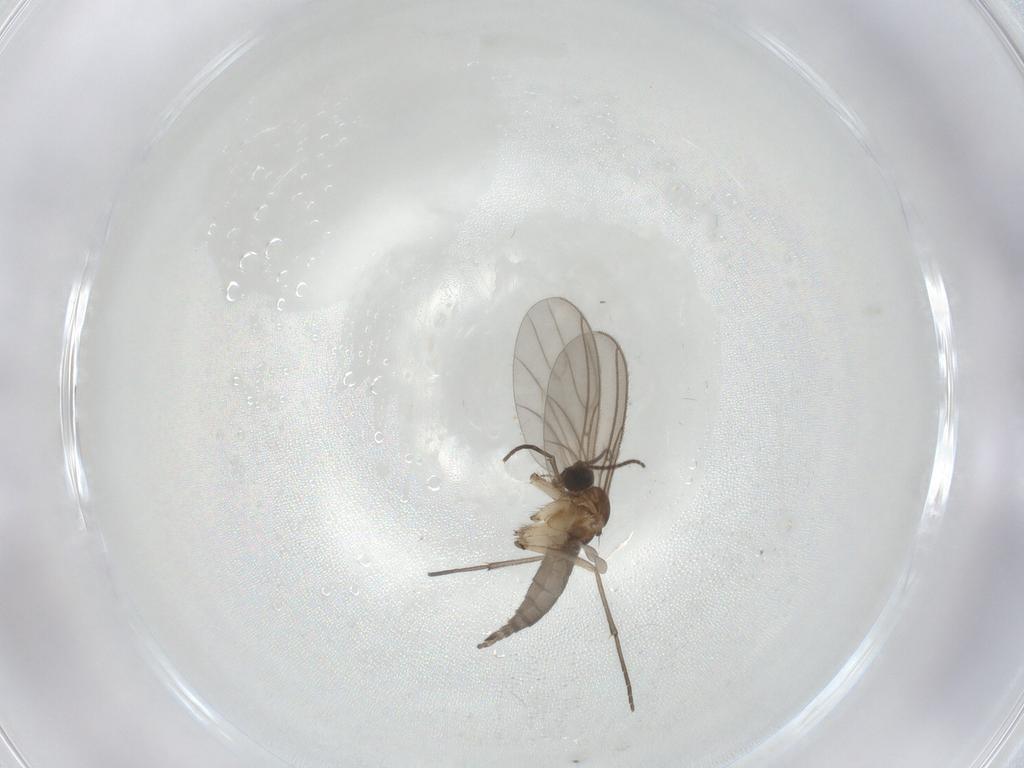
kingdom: Animalia
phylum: Arthropoda
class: Insecta
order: Diptera
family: Sciaridae
